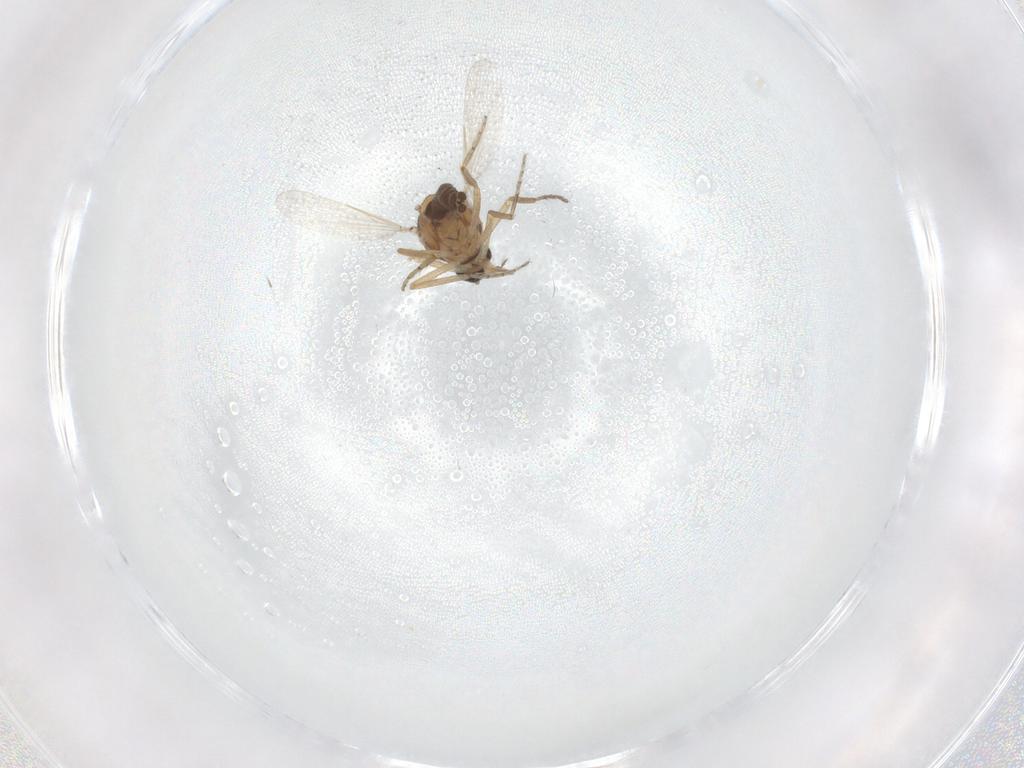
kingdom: Animalia
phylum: Arthropoda
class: Insecta
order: Diptera
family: Ceratopogonidae
